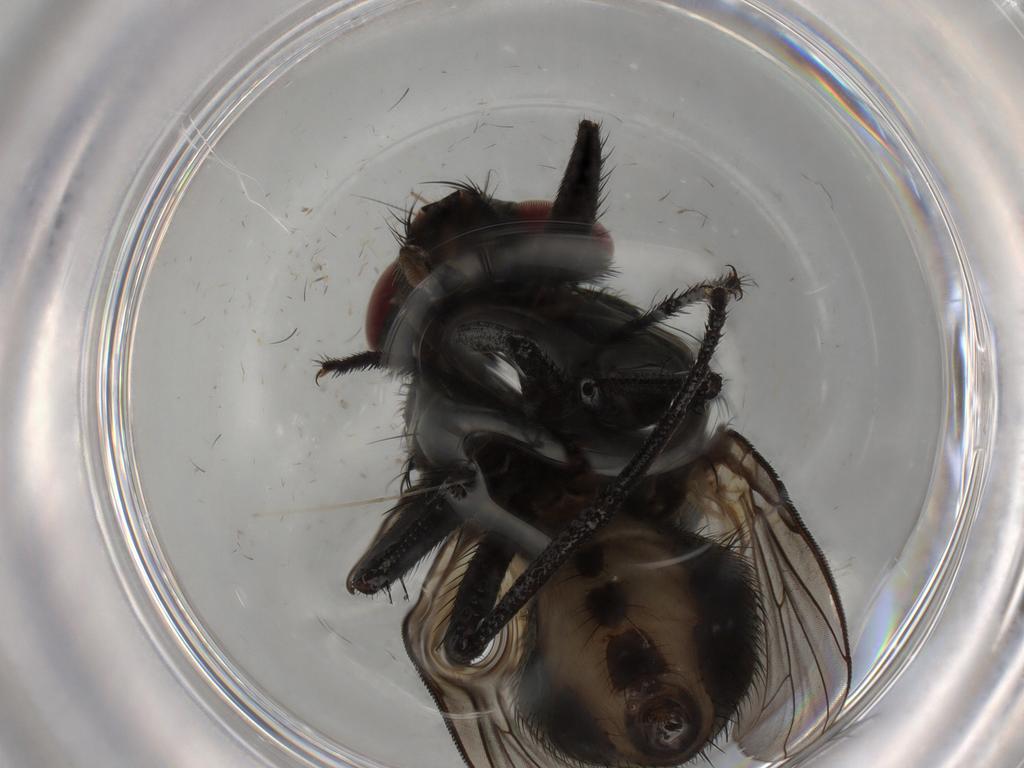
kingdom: Animalia
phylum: Arthropoda
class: Insecta
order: Diptera
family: Muscidae
